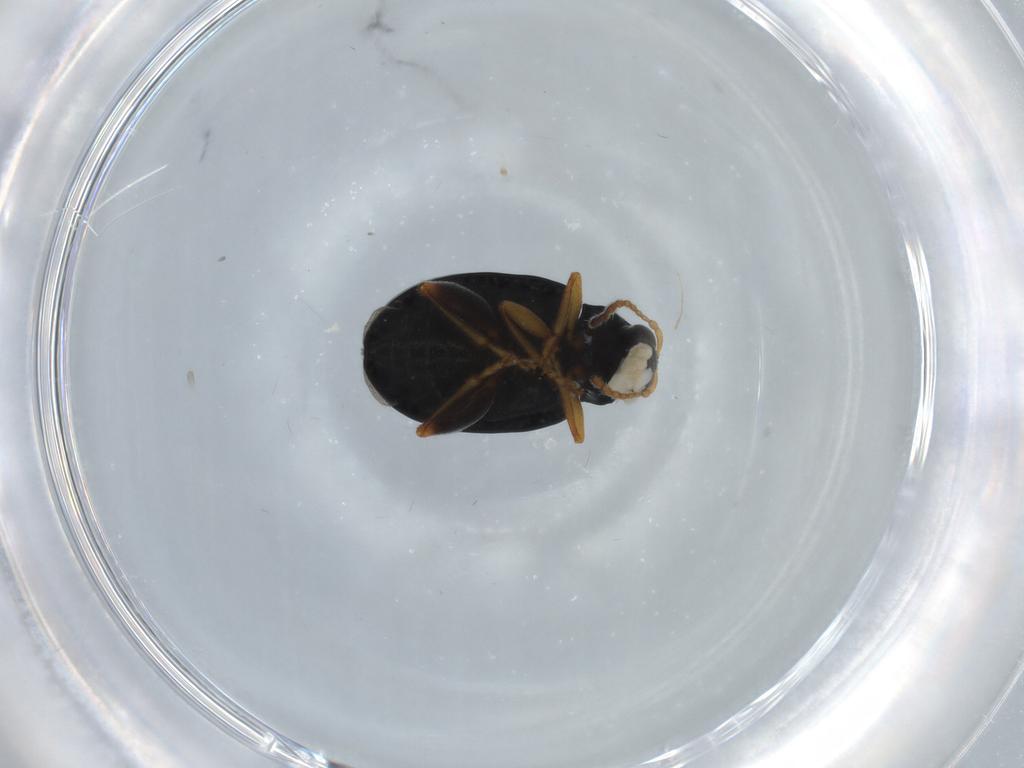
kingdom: Animalia
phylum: Arthropoda
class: Insecta
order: Coleoptera
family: Chrysomelidae
